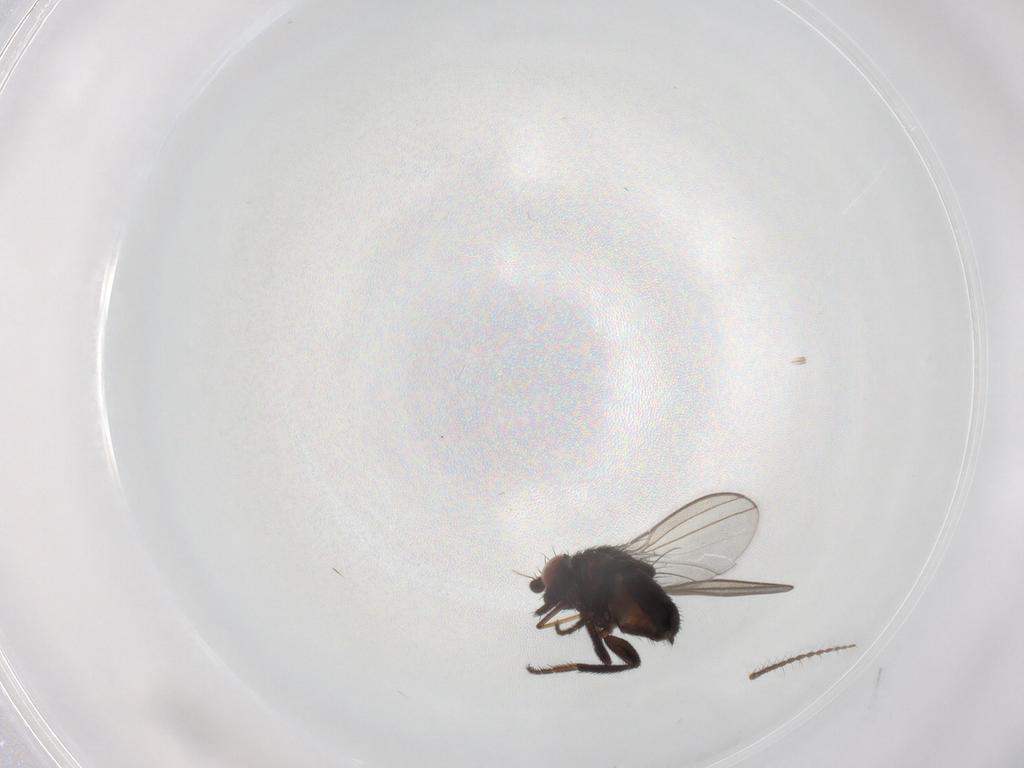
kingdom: Animalia
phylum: Arthropoda
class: Insecta
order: Diptera
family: Milichiidae
